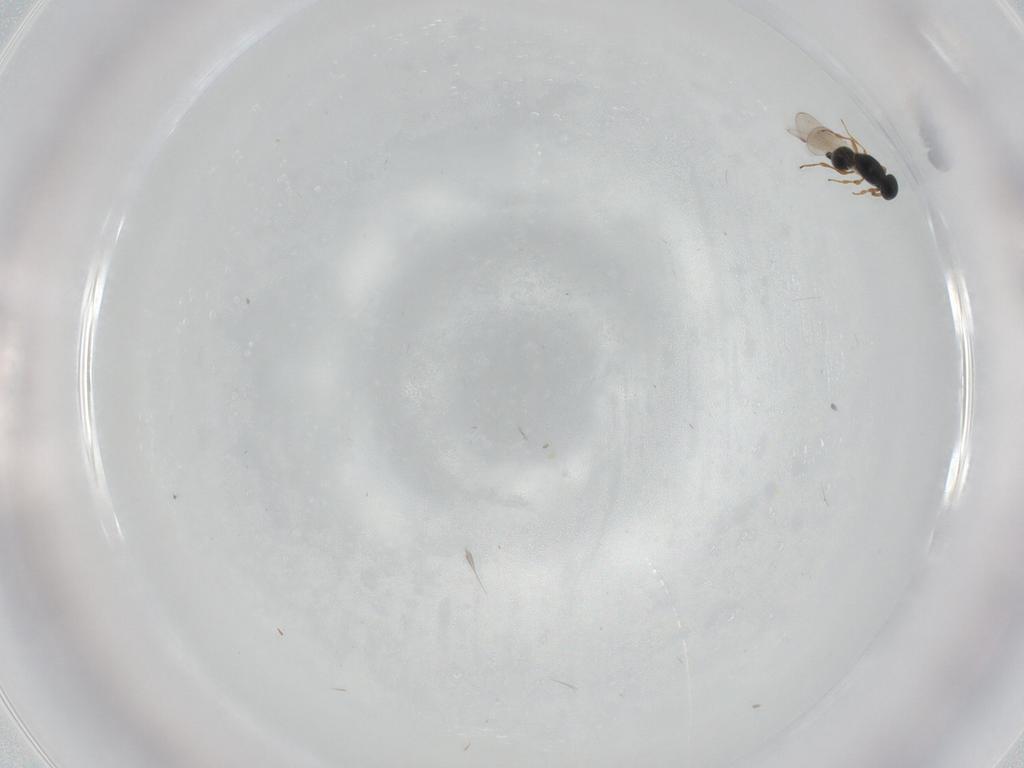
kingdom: Animalia
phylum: Arthropoda
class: Insecta
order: Hymenoptera
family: Platygastridae
